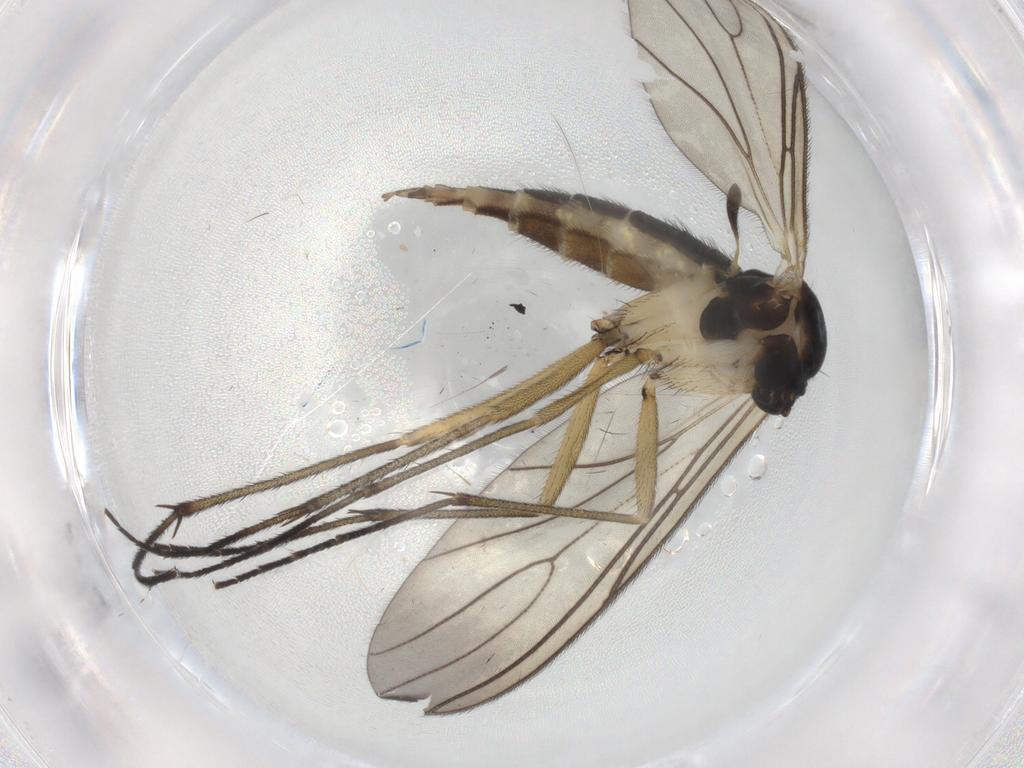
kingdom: Animalia
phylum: Arthropoda
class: Insecta
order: Diptera
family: Sciaridae
